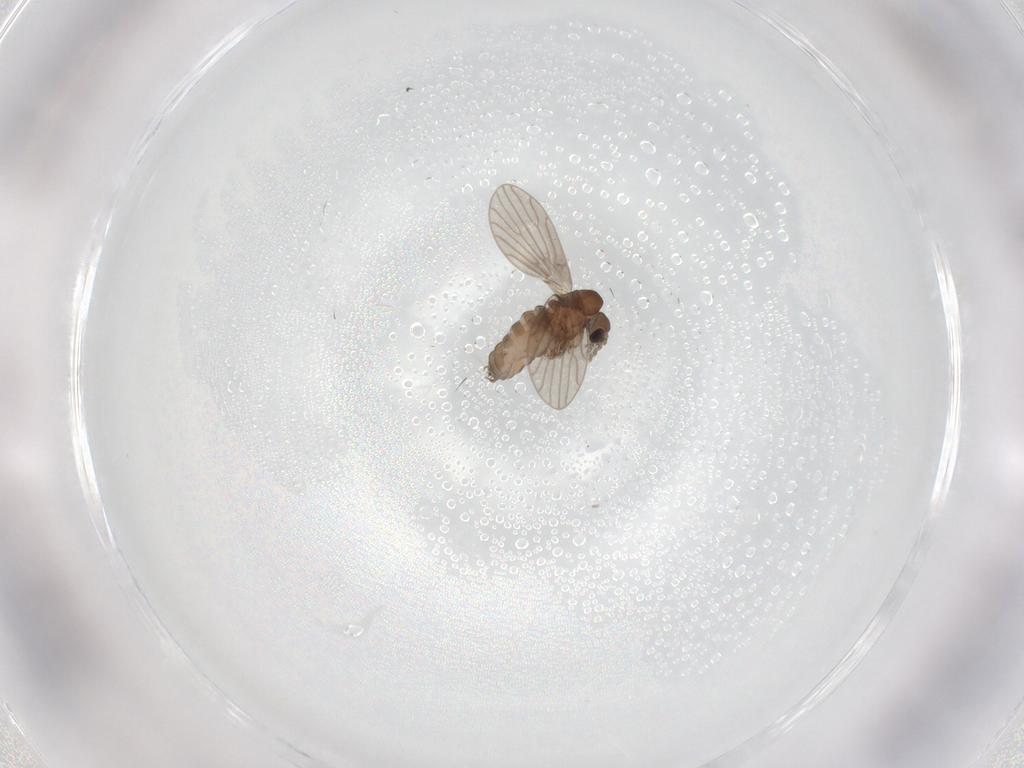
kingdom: Animalia
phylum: Arthropoda
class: Insecta
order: Diptera
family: Psychodidae
